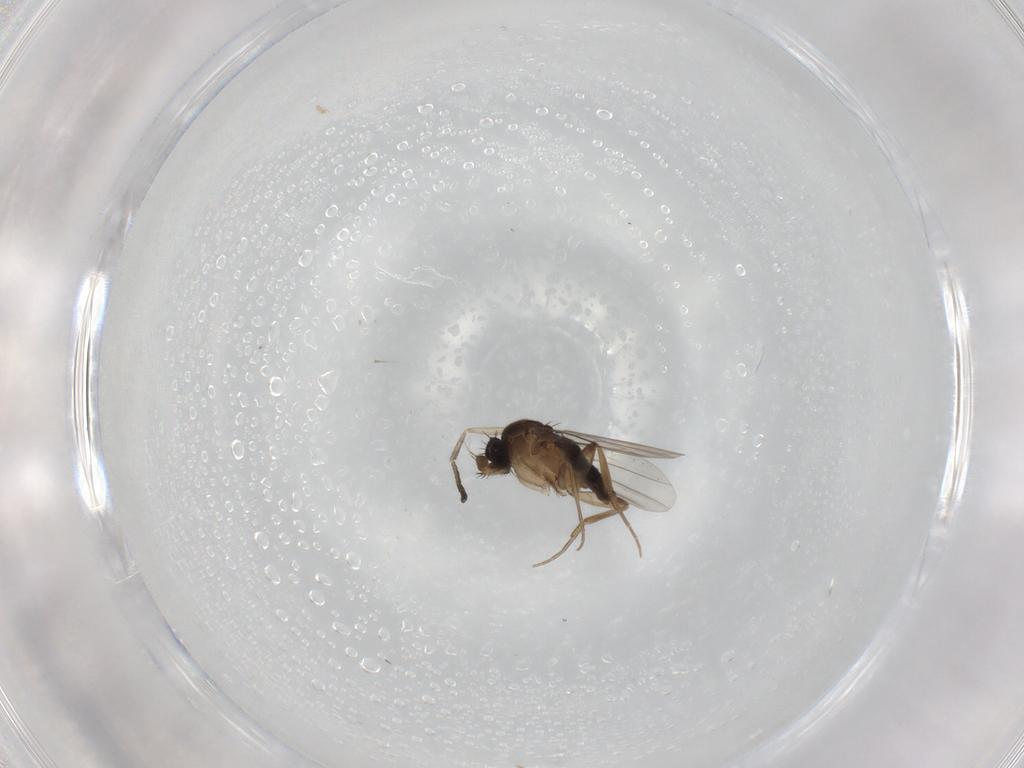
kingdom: Animalia
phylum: Arthropoda
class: Insecta
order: Diptera
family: Phoridae
